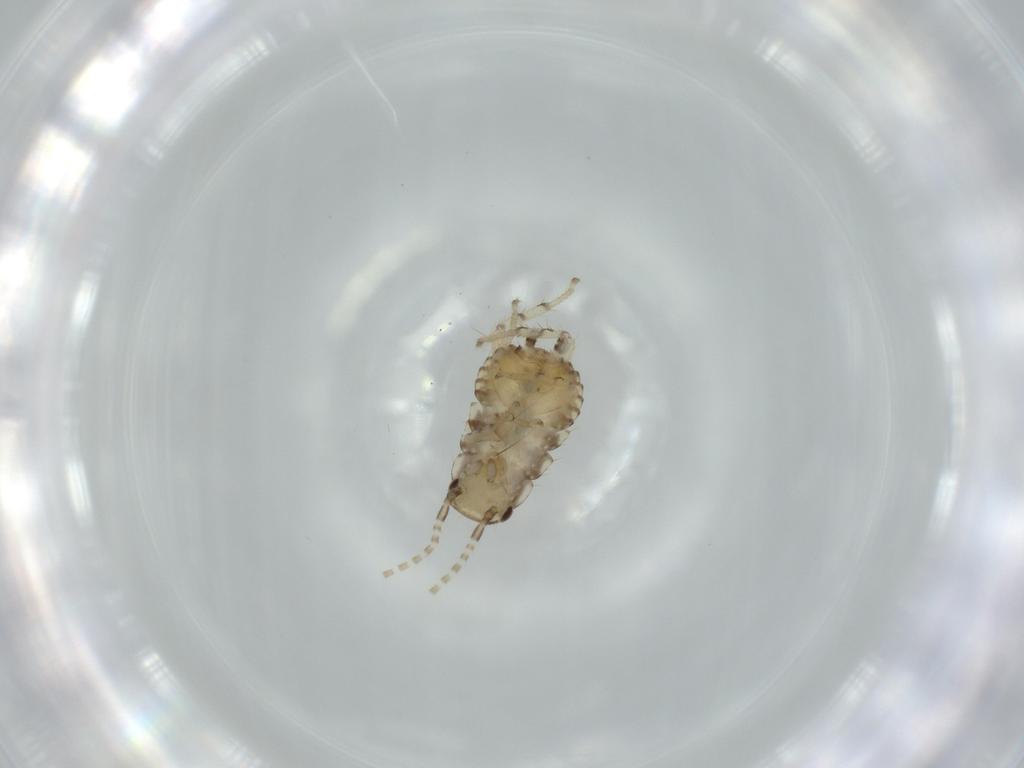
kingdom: Animalia
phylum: Arthropoda
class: Insecta
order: Blattodea
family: Ectobiidae
